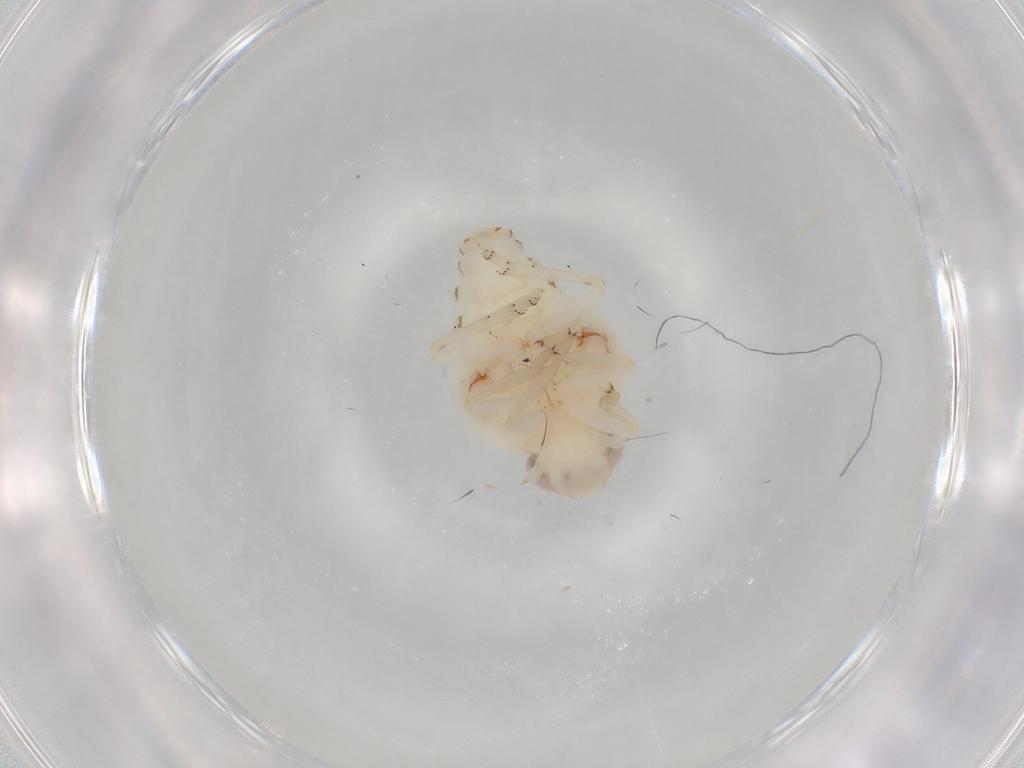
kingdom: Animalia
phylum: Arthropoda
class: Insecta
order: Hemiptera
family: Nogodinidae
